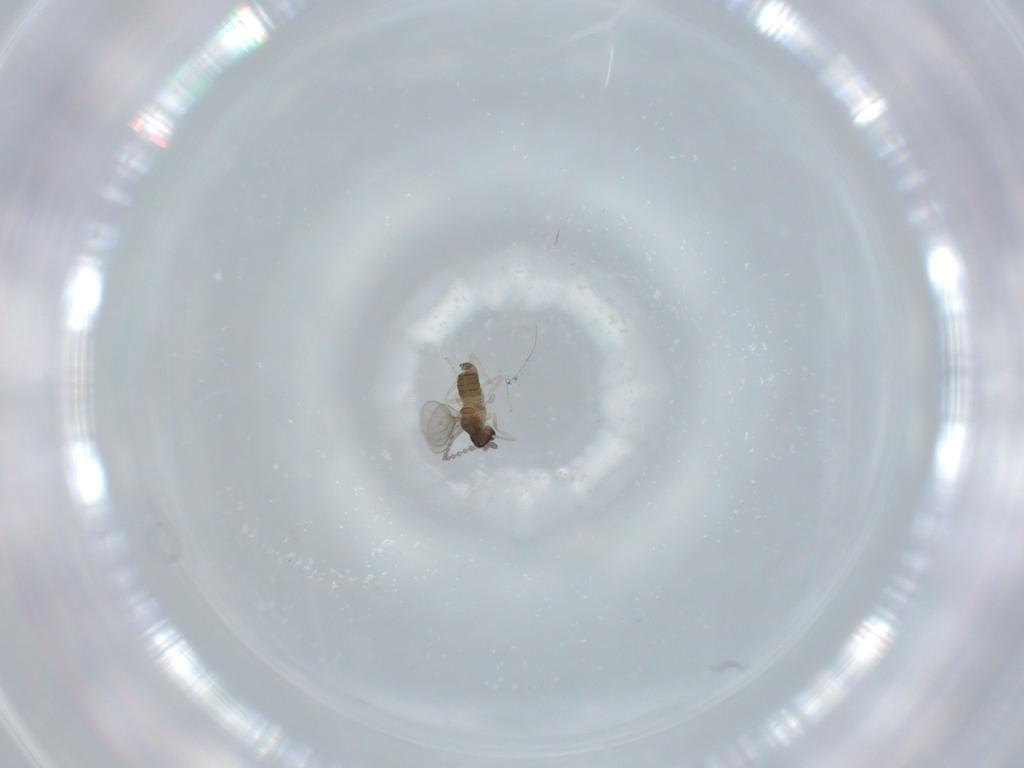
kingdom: Animalia
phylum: Arthropoda
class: Insecta
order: Diptera
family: Cecidomyiidae
